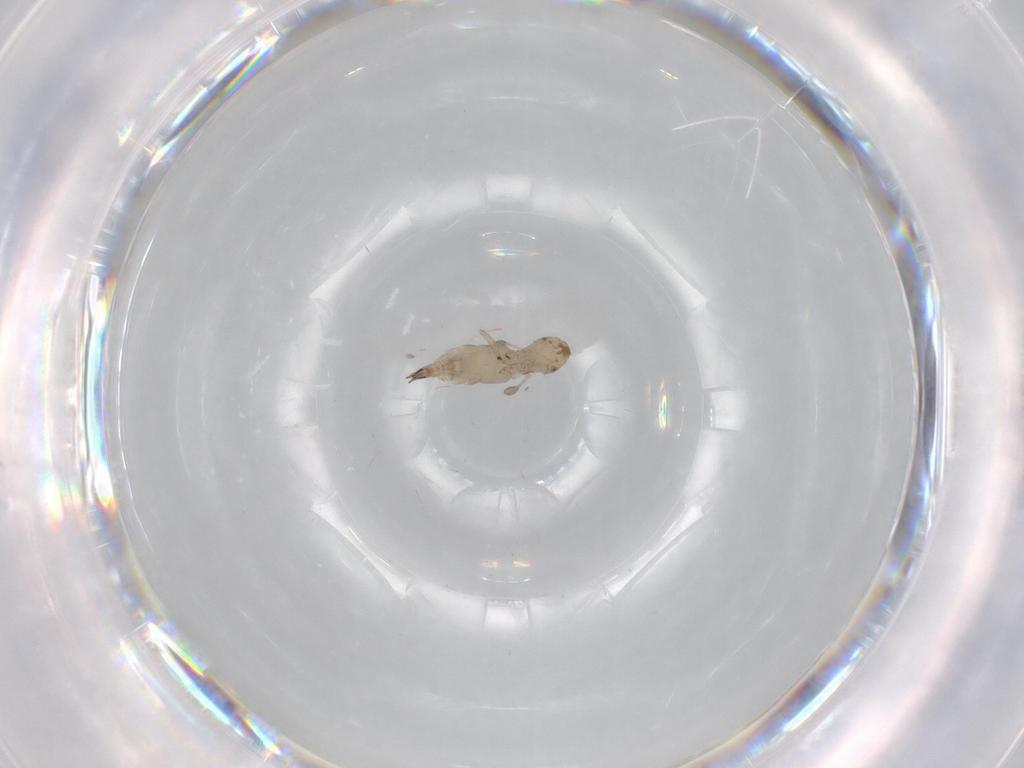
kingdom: Animalia
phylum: Arthropoda
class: Insecta
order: Diptera
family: Sciaridae
